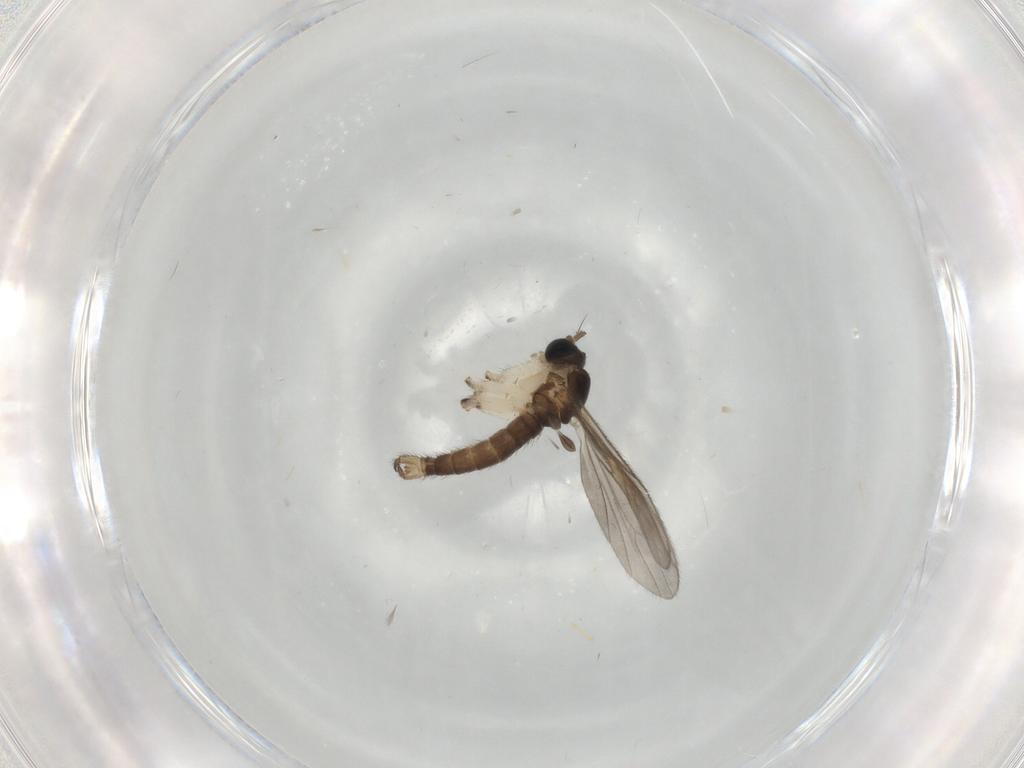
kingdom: Animalia
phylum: Arthropoda
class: Insecta
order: Diptera
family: Sciaridae
